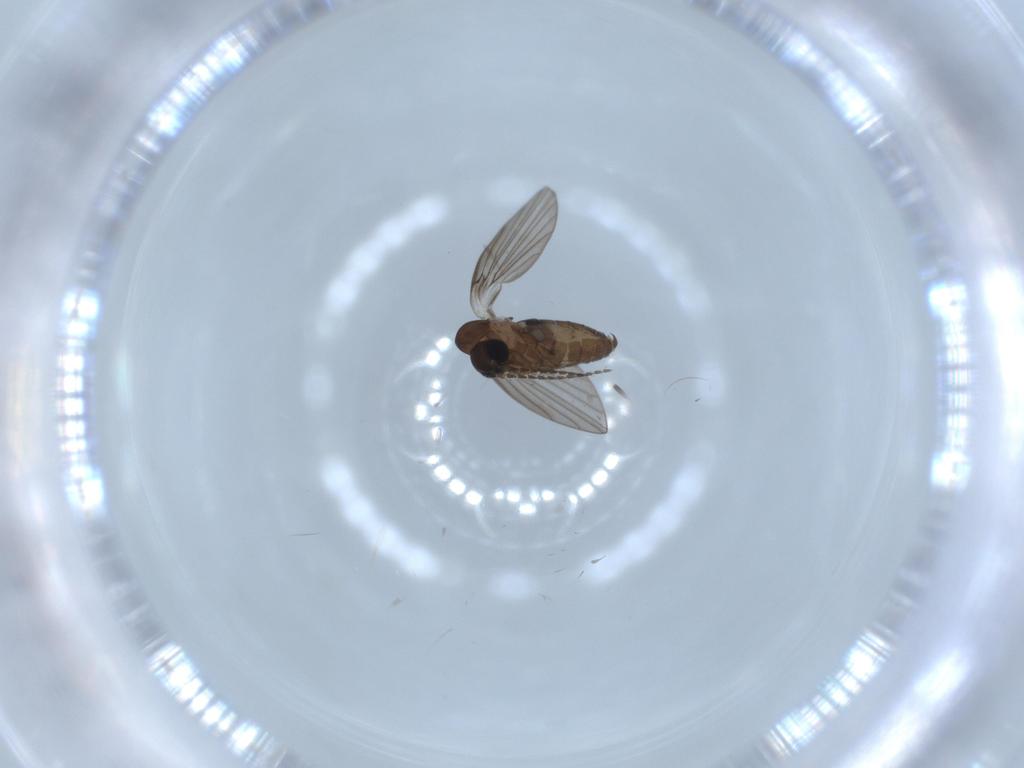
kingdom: Animalia
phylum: Arthropoda
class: Insecta
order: Diptera
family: Psychodidae
